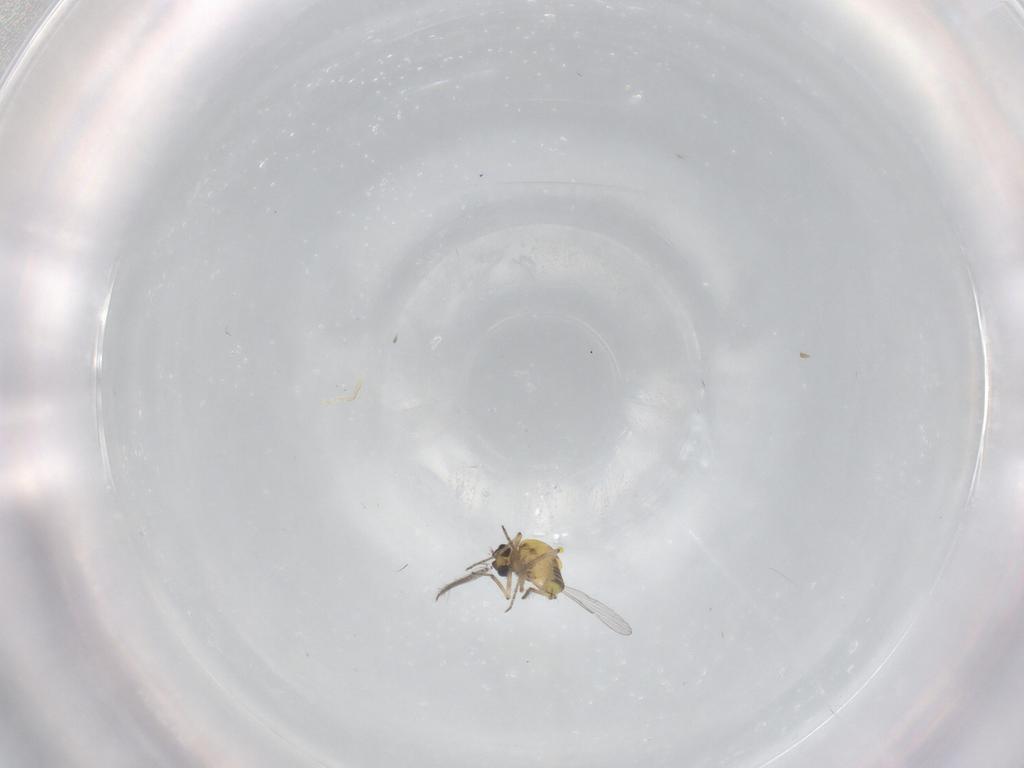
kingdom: Animalia
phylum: Arthropoda
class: Insecta
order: Diptera
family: Ceratopogonidae
